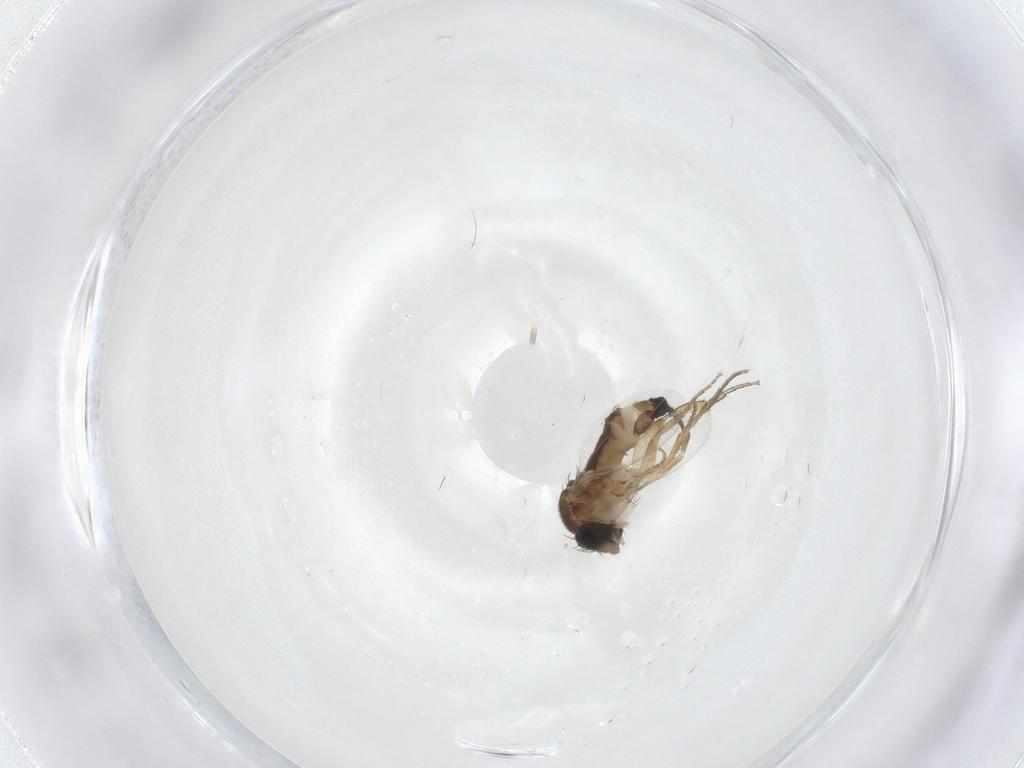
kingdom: Animalia
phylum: Arthropoda
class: Insecta
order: Diptera
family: Phoridae
